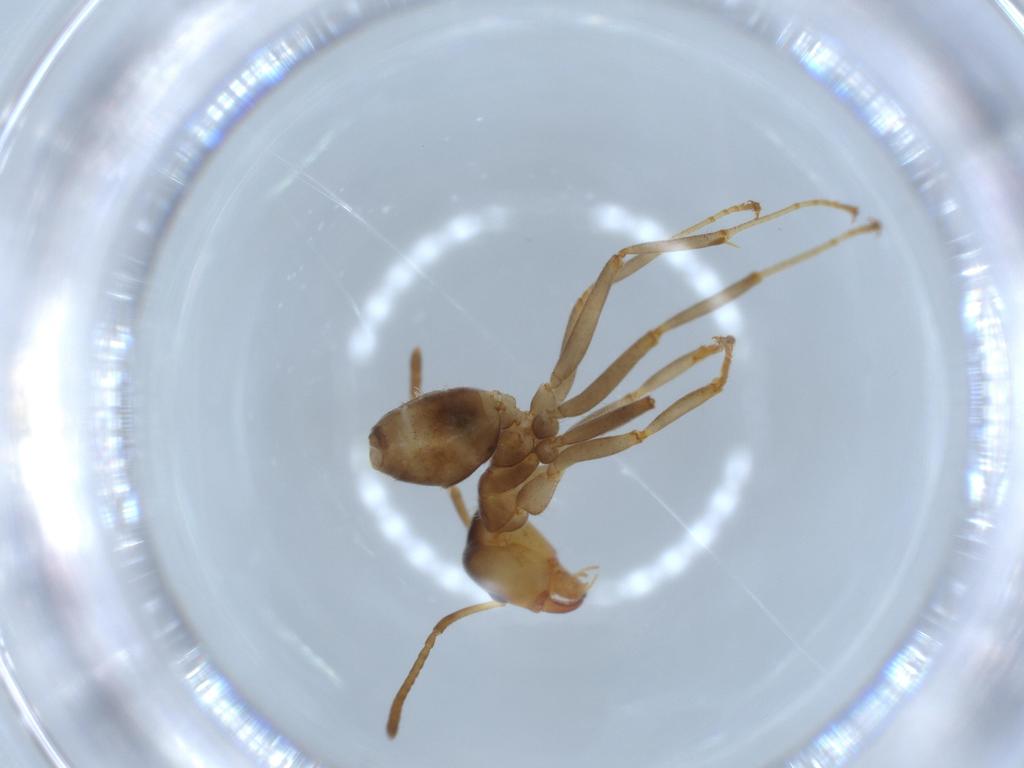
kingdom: Animalia
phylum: Arthropoda
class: Insecta
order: Hymenoptera
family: Formicidae
